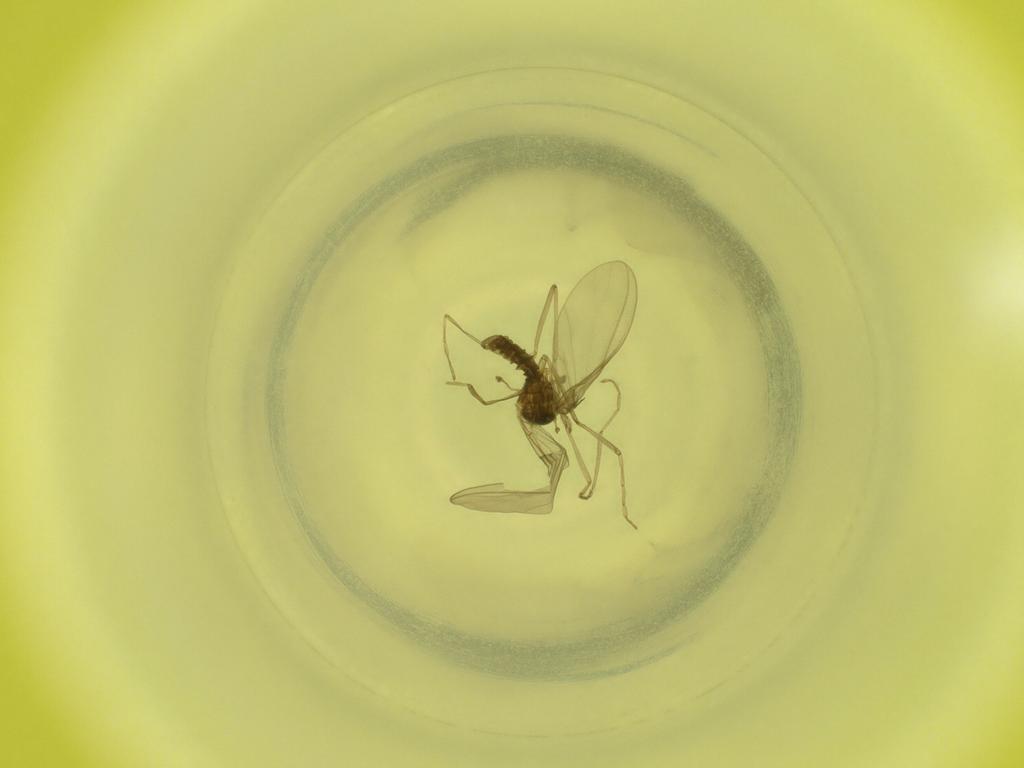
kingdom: Animalia
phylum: Arthropoda
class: Insecta
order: Diptera
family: Cecidomyiidae
